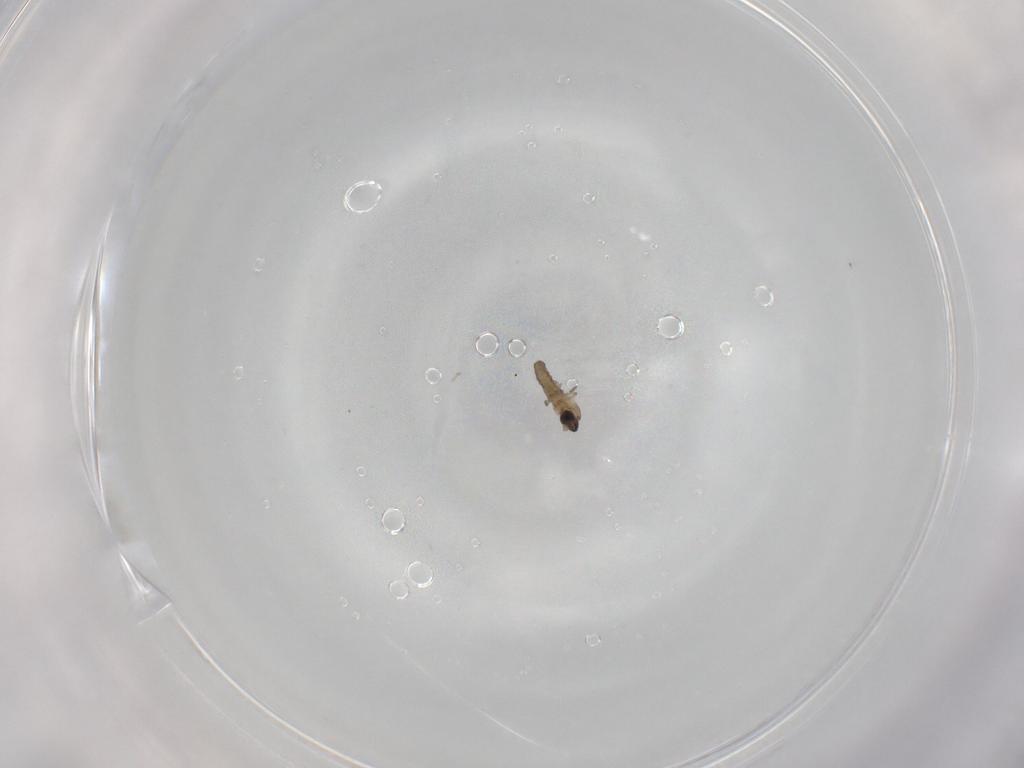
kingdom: Animalia
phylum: Arthropoda
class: Insecta
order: Diptera
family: Cecidomyiidae
